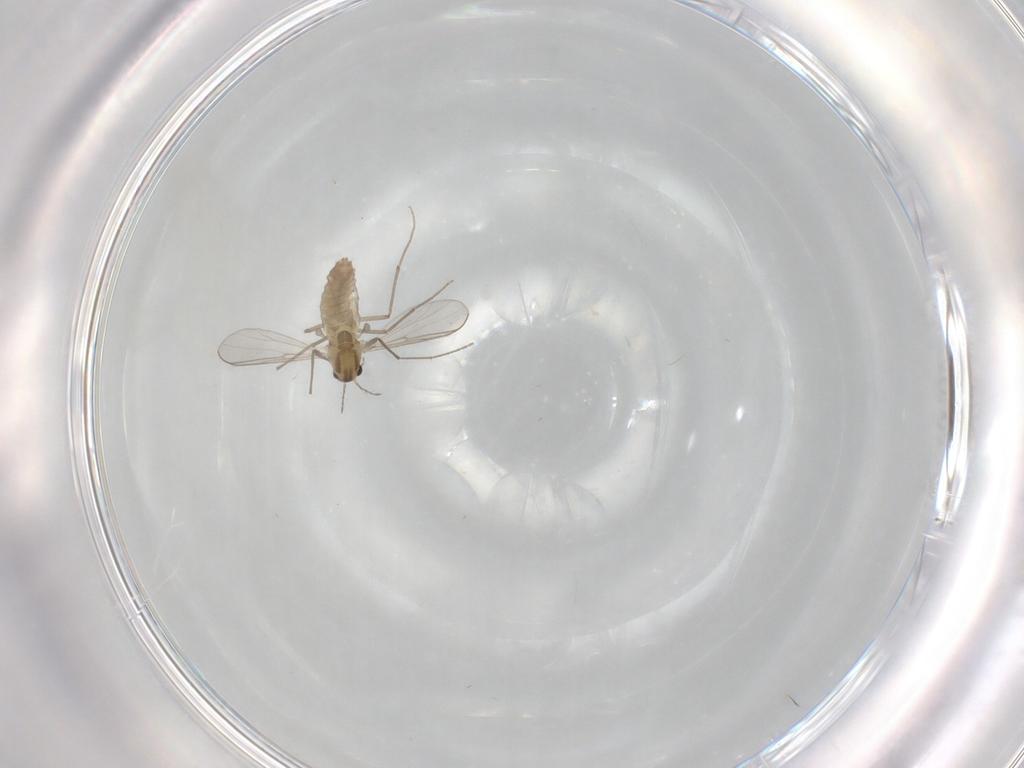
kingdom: Animalia
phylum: Arthropoda
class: Insecta
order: Diptera
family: Chironomidae
